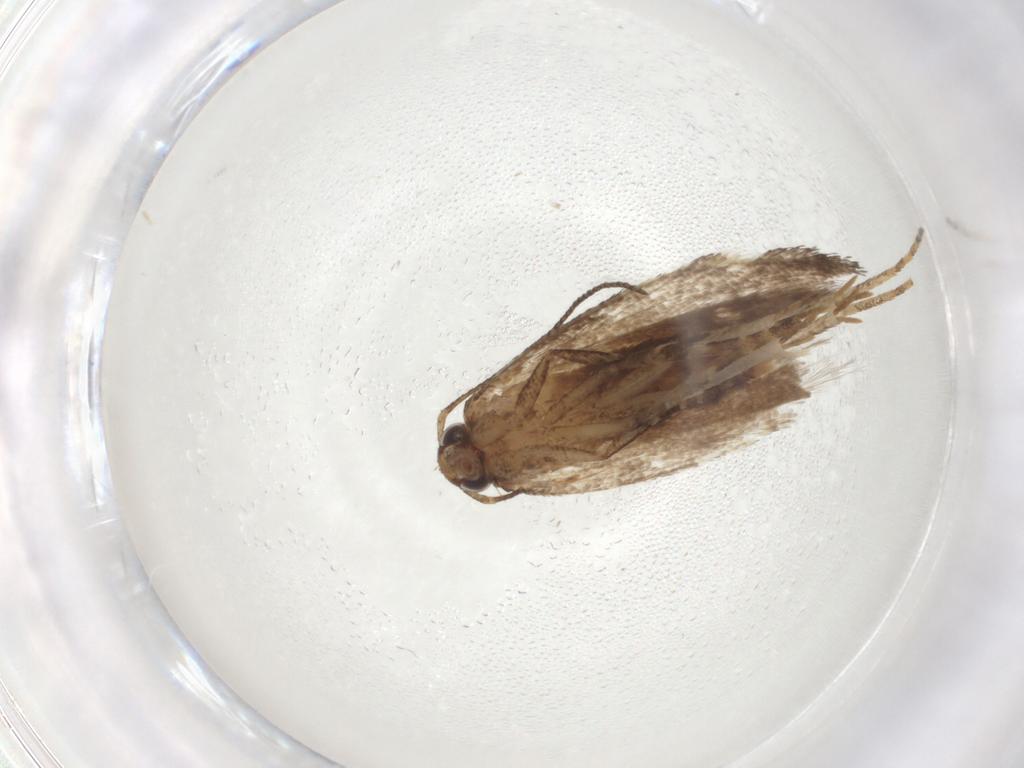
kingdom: Animalia
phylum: Arthropoda
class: Insecta
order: Lepidoptera
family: Gelechiidae
